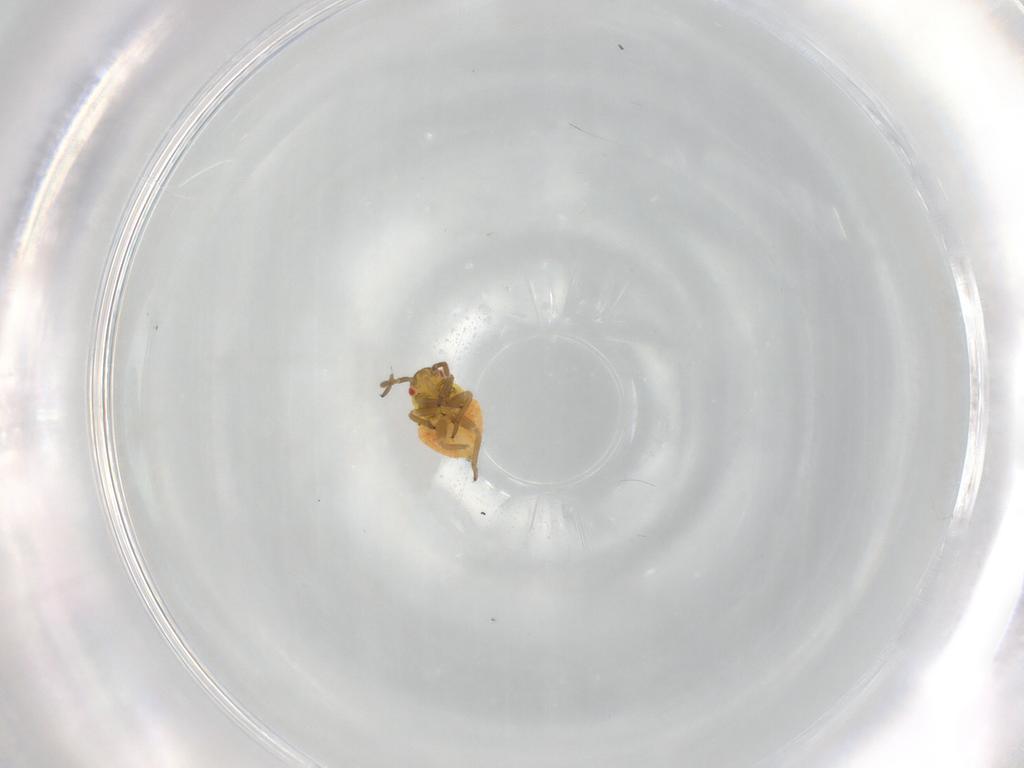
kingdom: Animalia
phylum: Arthropoda
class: Insecta
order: Hemiptera
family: Miridae
